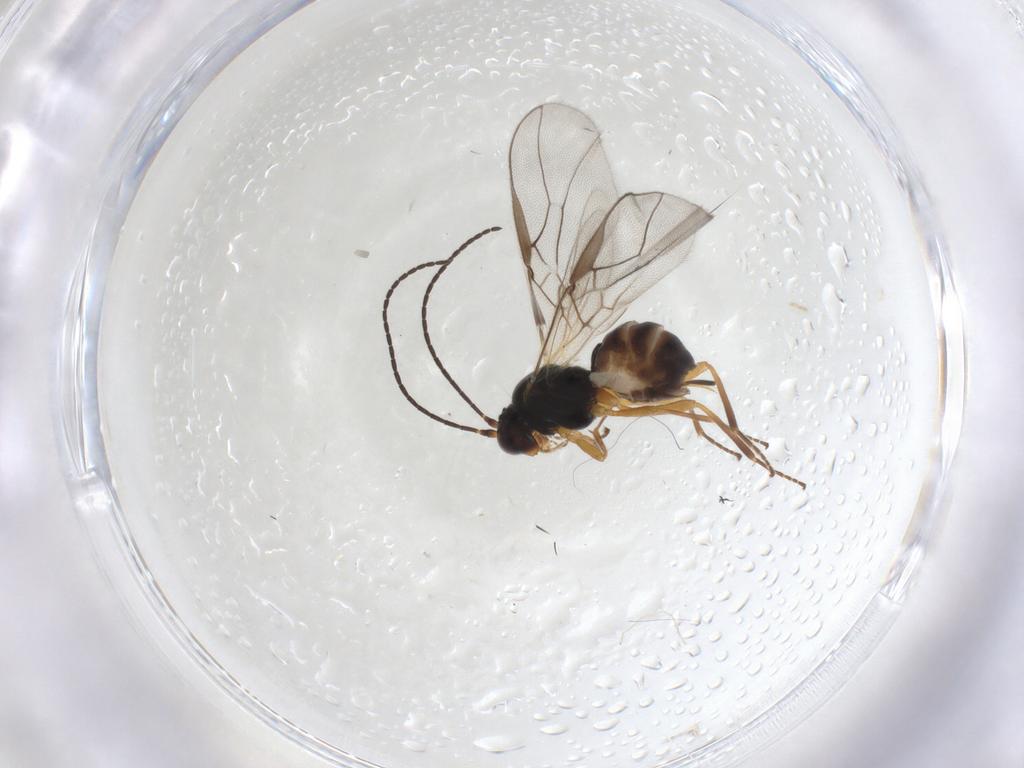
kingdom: Animalia
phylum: Arthropoda
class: Insecta
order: Hymenoptera
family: Braconidae
